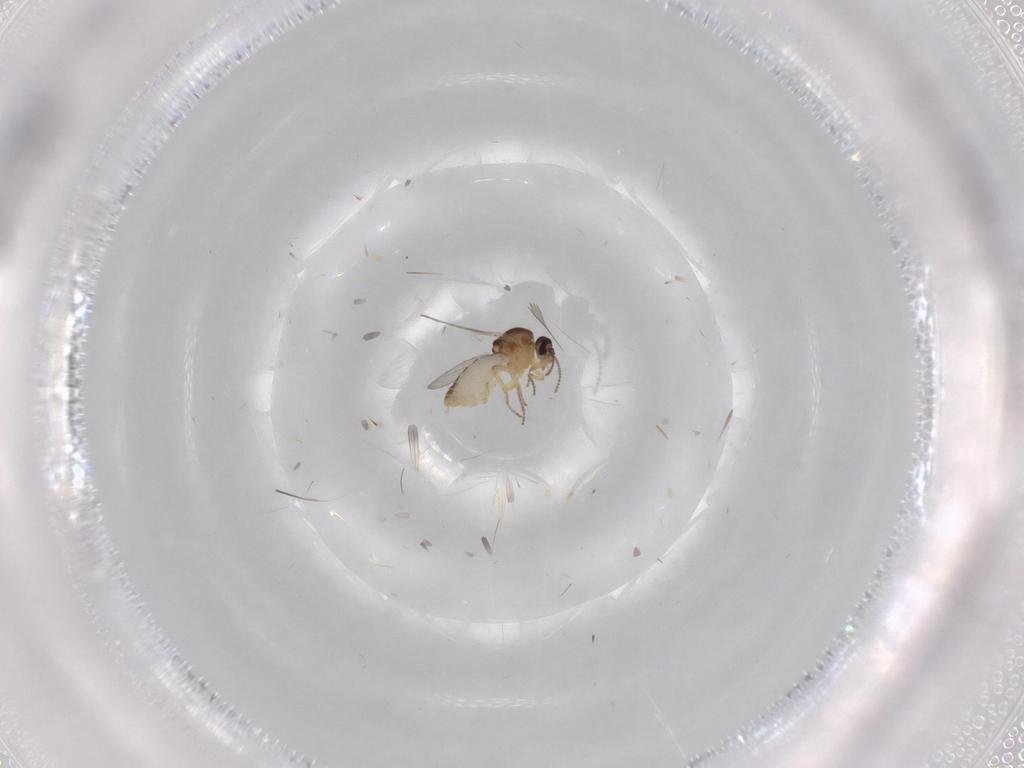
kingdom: Animalia
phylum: Arthropoda
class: Insecta
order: Diptera
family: Ceratopogonidae
